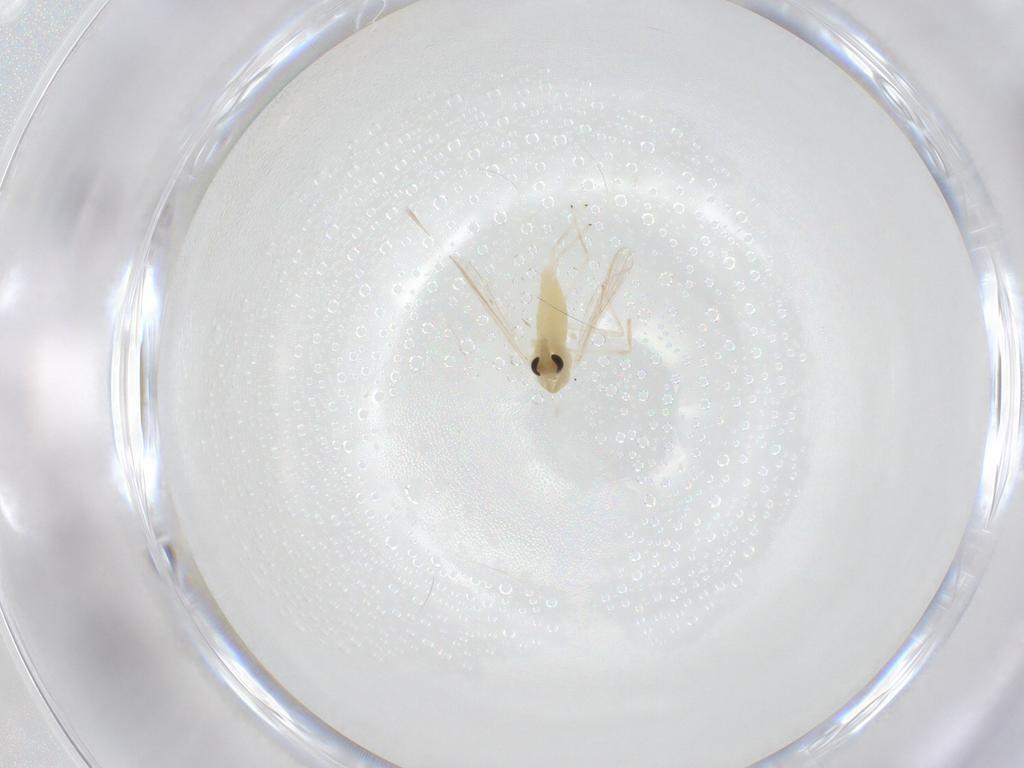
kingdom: Animalia
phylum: Arthropoda
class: Insecta
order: Diptera
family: Chironomidae
